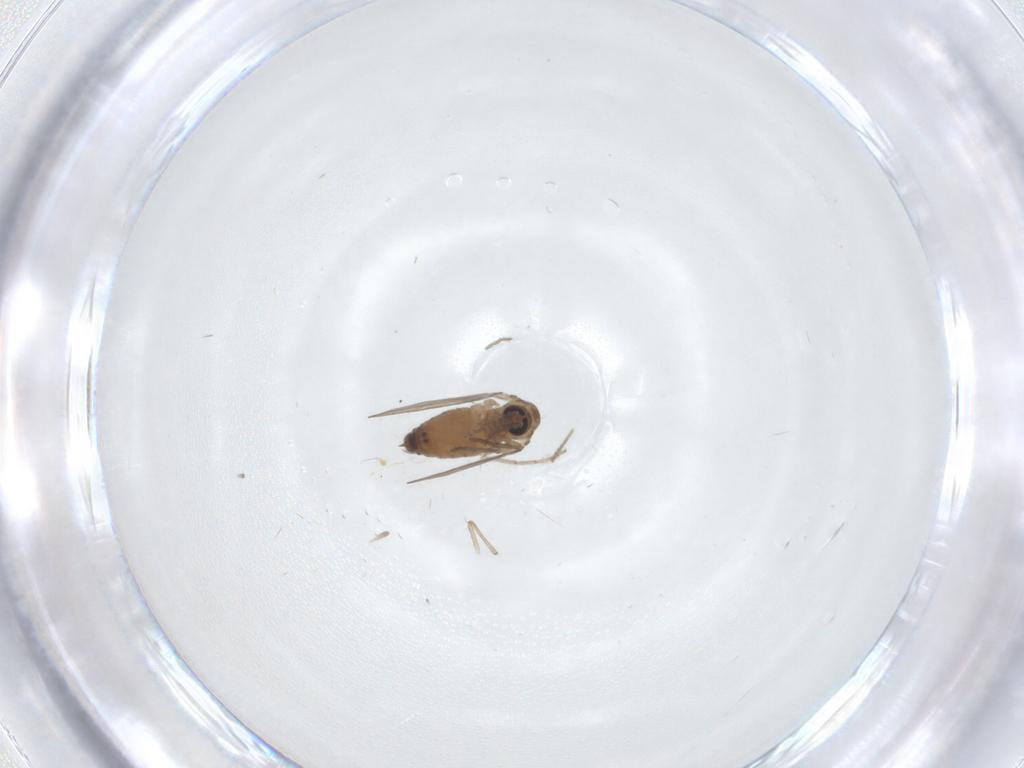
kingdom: Animalia
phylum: Arthropoda
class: Insecta
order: Diptera
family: Psychodidae
